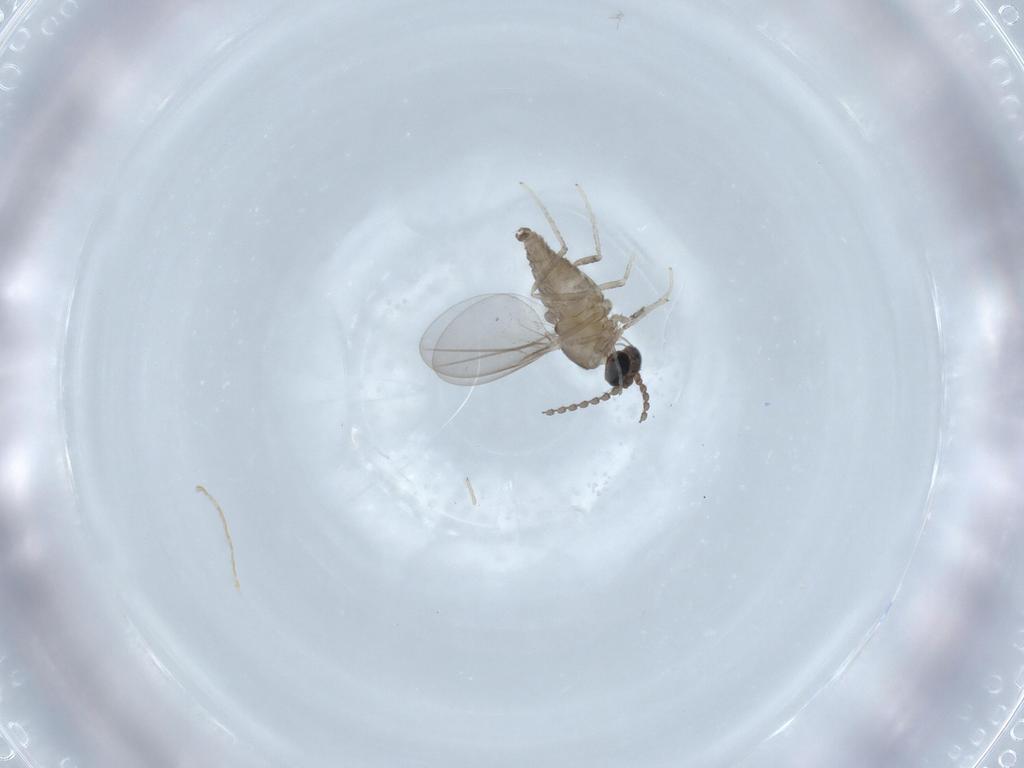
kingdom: Animalia
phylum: Arthropoda
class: Insecta
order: Diptera
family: Cecidomyiidae
